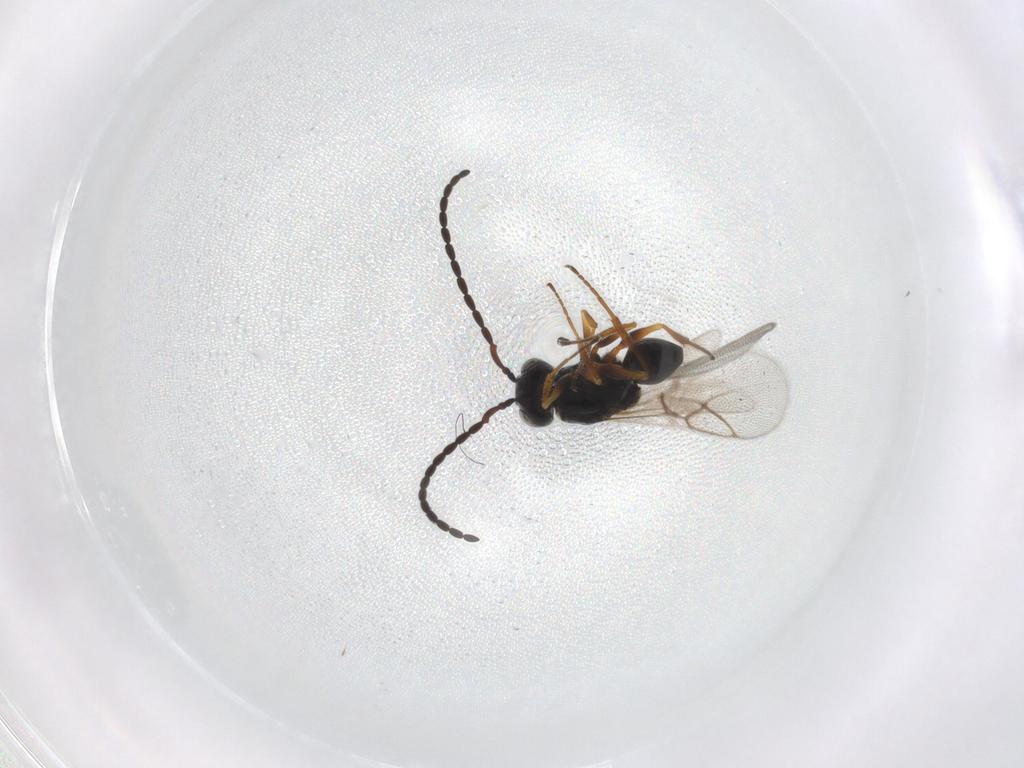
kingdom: Animalia
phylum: Arthropoda
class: Insecta
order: Hymenoptera
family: Figitidae
